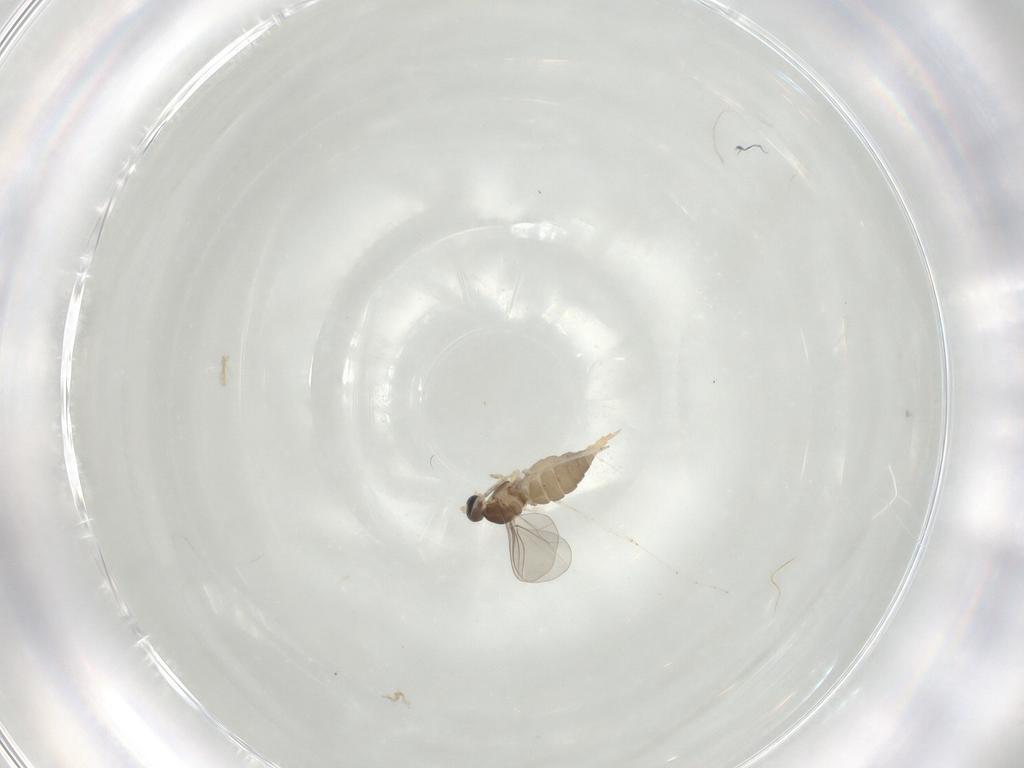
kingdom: Animalia
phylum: Arthropoda
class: Insecta
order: Diptera
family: Cecidomyiidae
